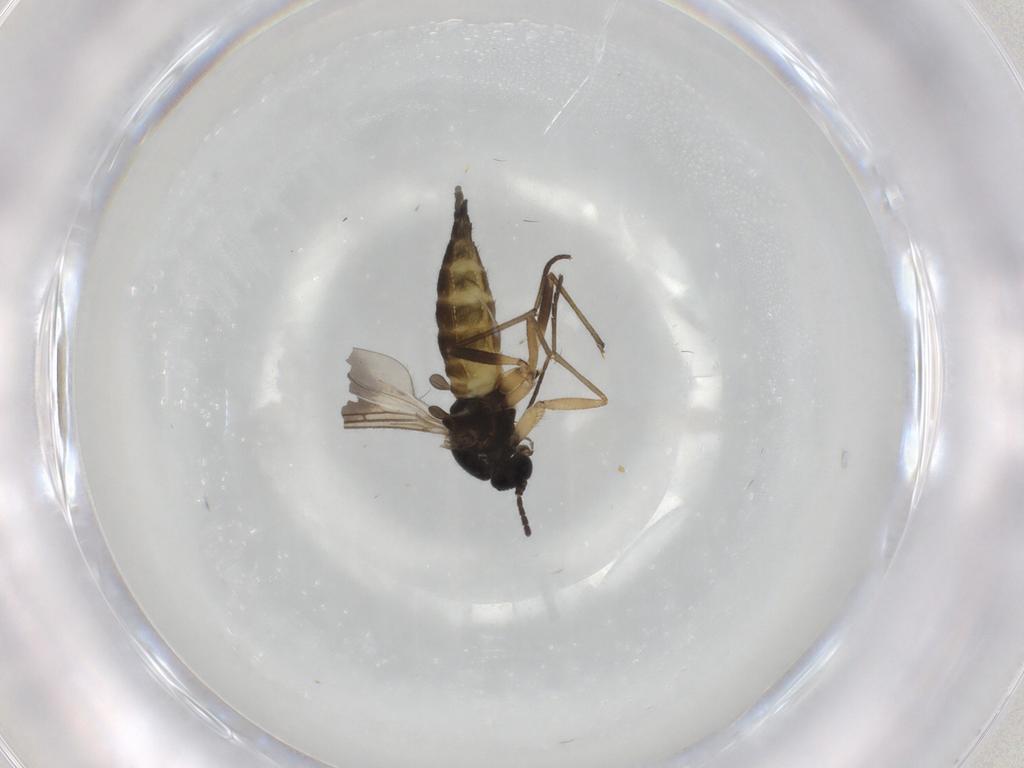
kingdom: Animalia
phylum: Arthropoda
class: Insecta
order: Diptera
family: Sciaridae
